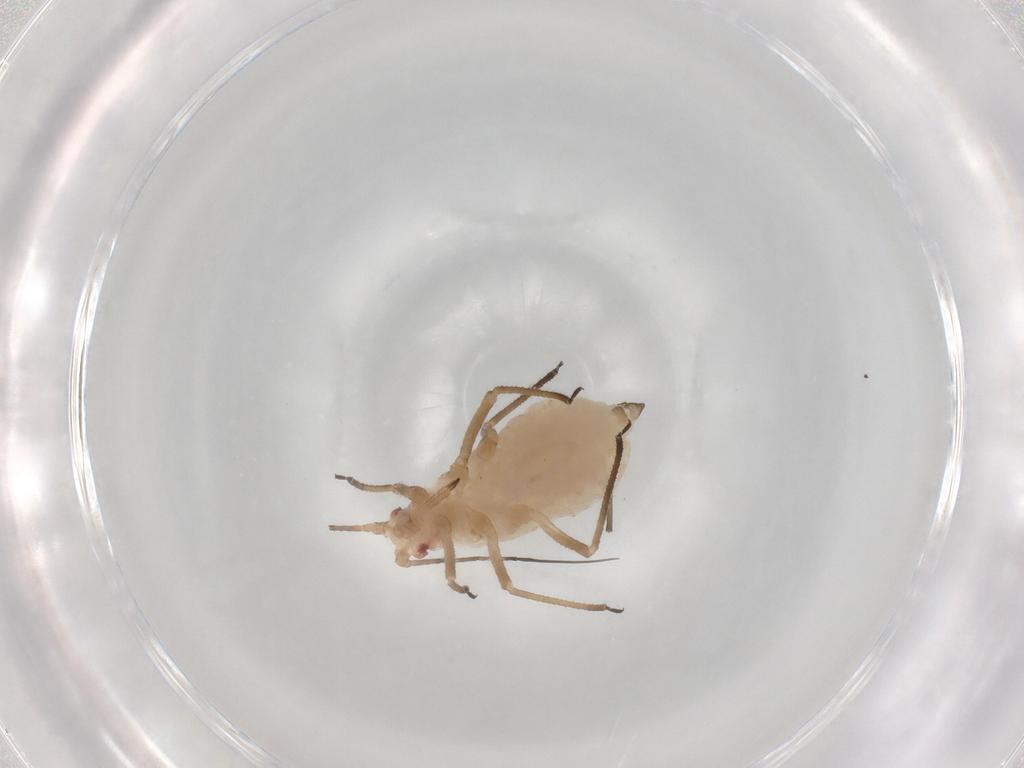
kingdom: Animalia
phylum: Arthropoda
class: Insecta
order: Hemiptera
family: Aphididae
